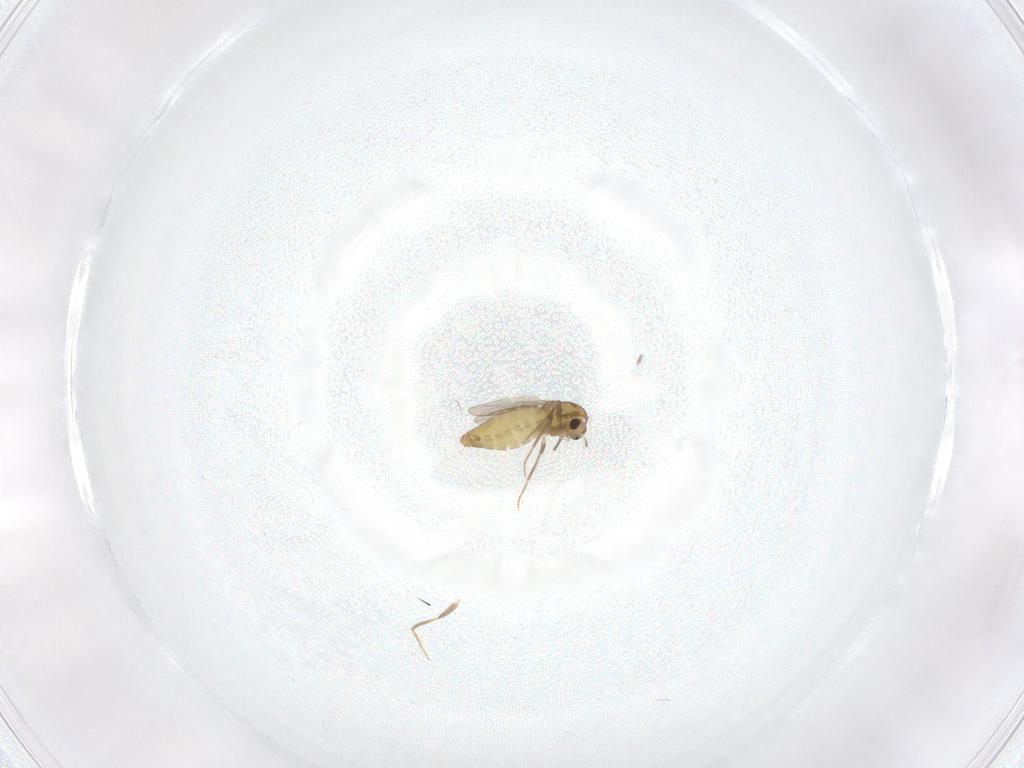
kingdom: Animalia
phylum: Arthropoda
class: Insecta
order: Diptera
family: Chironomidae
